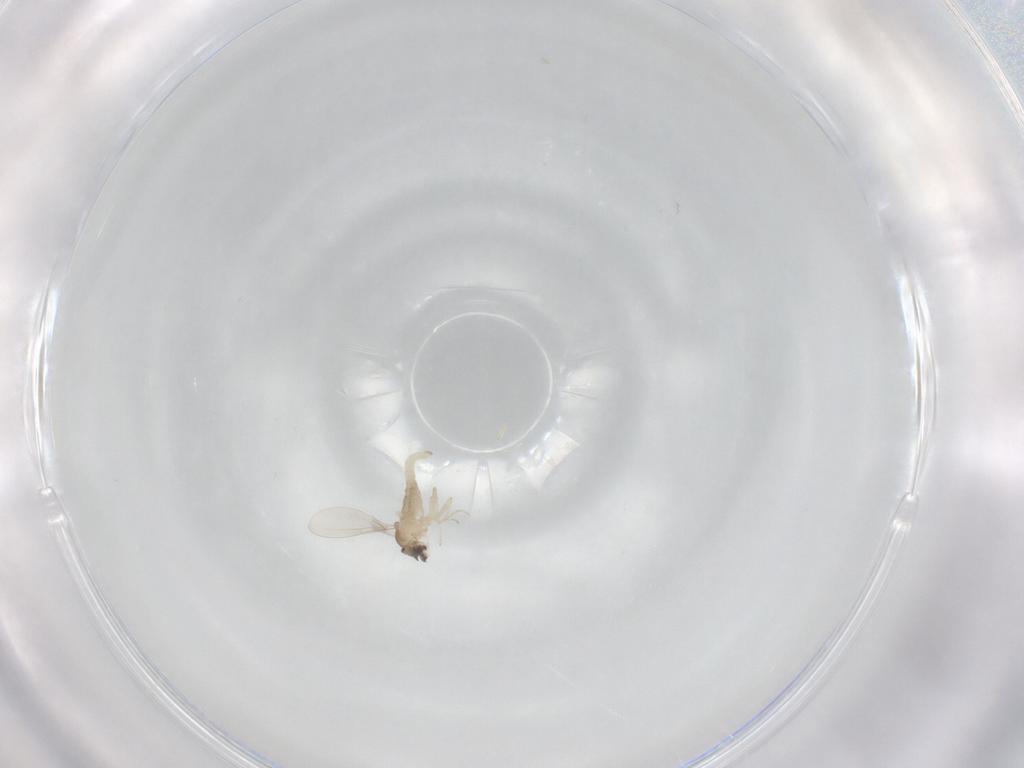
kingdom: Animalia
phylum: Arthropoda
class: Insecta
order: Diptera
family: Cecidomyiidae
